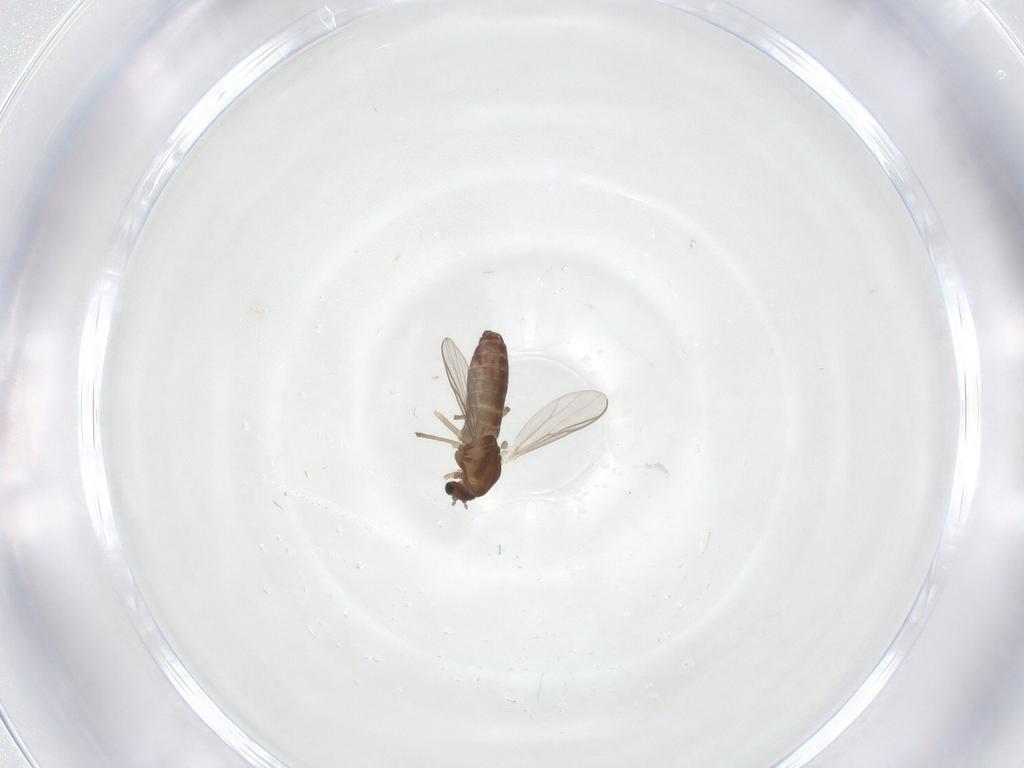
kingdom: Animalia
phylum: Arthropoda
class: Insecta
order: Diptera
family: Chironomidae
